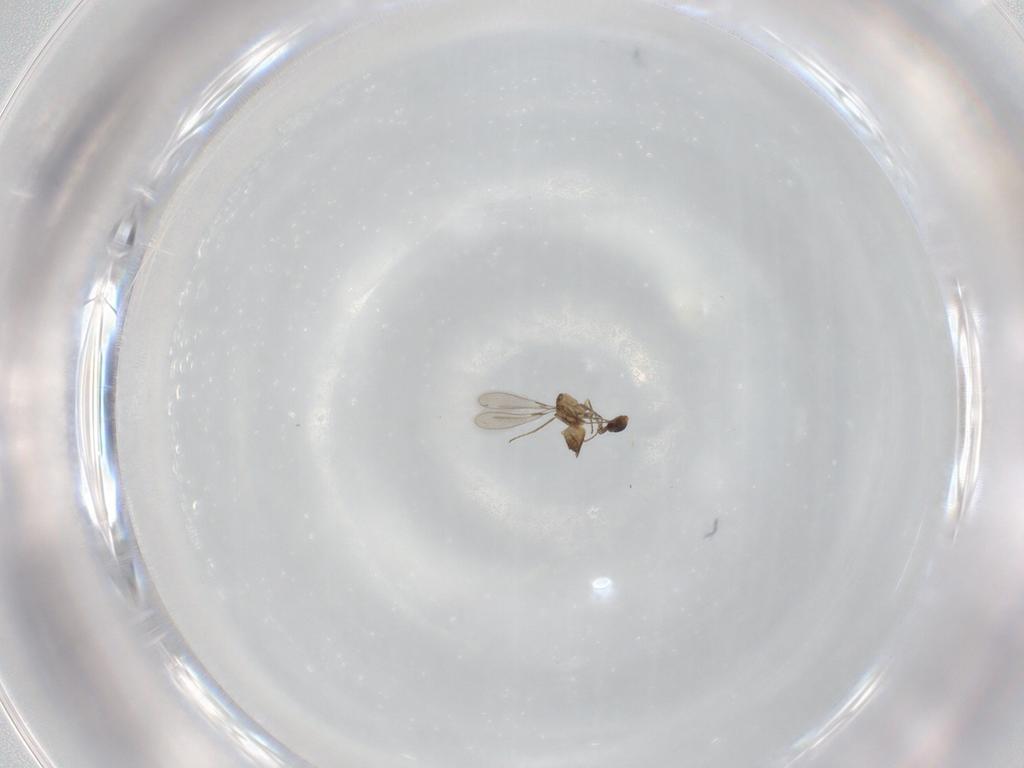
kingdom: Animalia
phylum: Arthropoda
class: Insecta
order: Hymenoptera
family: Mymaridae
